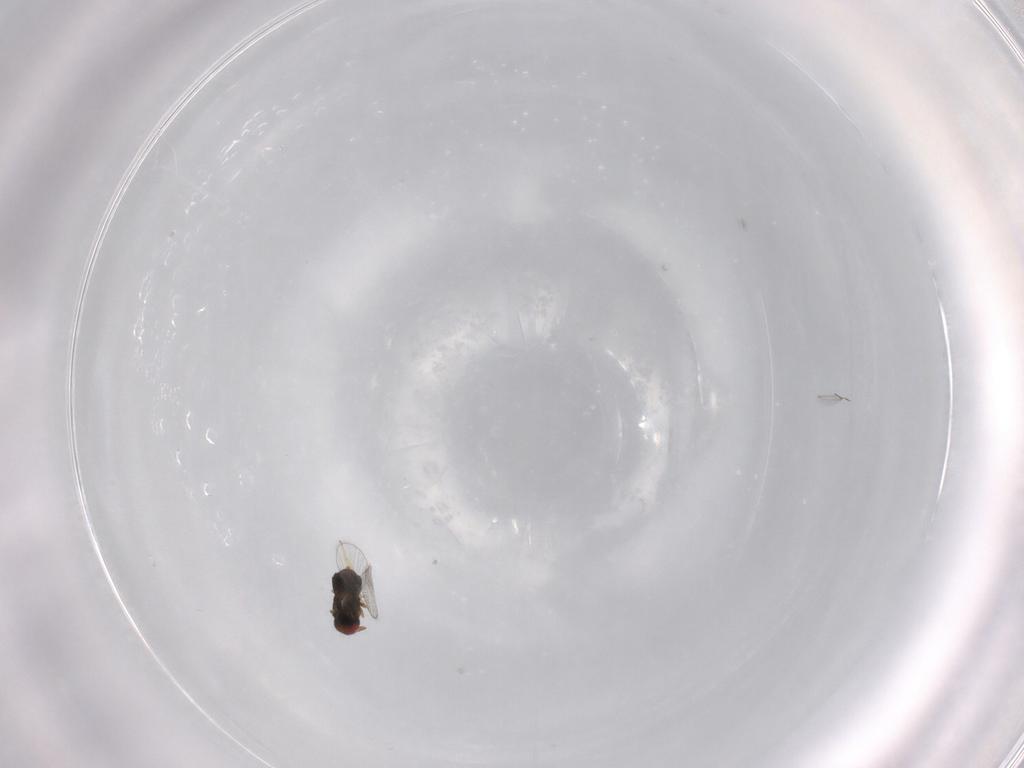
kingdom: Animalia
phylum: Arthropoda
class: Insecta
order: Hymenoptera
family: Trichogrammatidae
